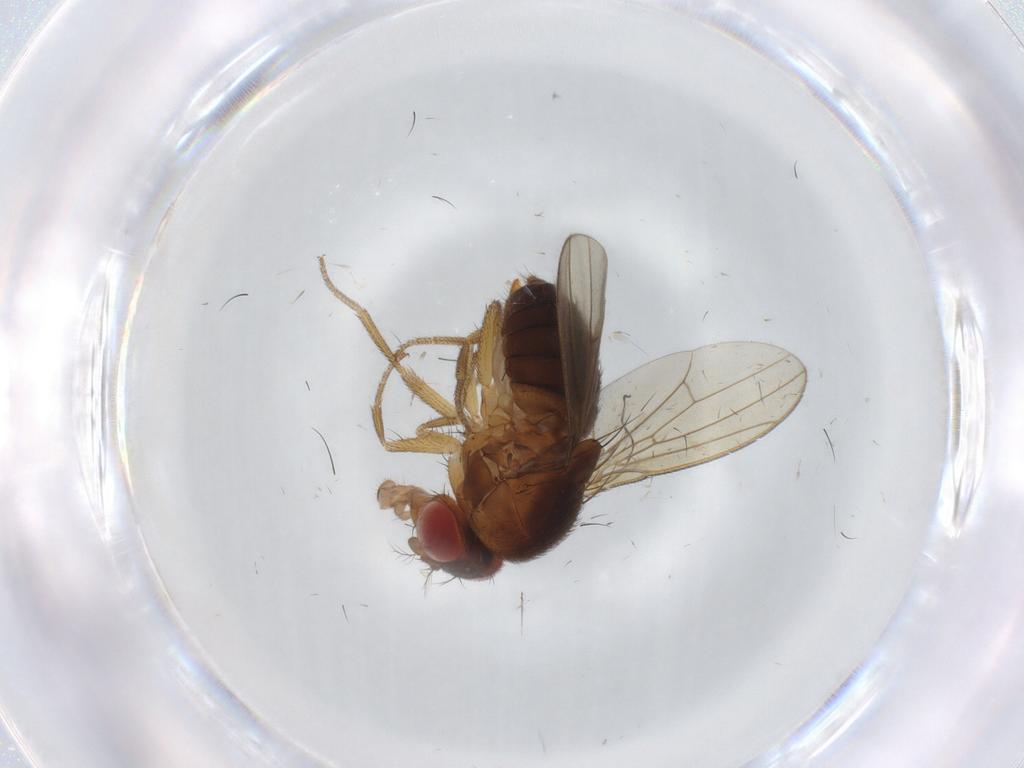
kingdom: Animalia
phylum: Arthropoda
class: Insecta
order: Diptera
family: Drosophilidae
